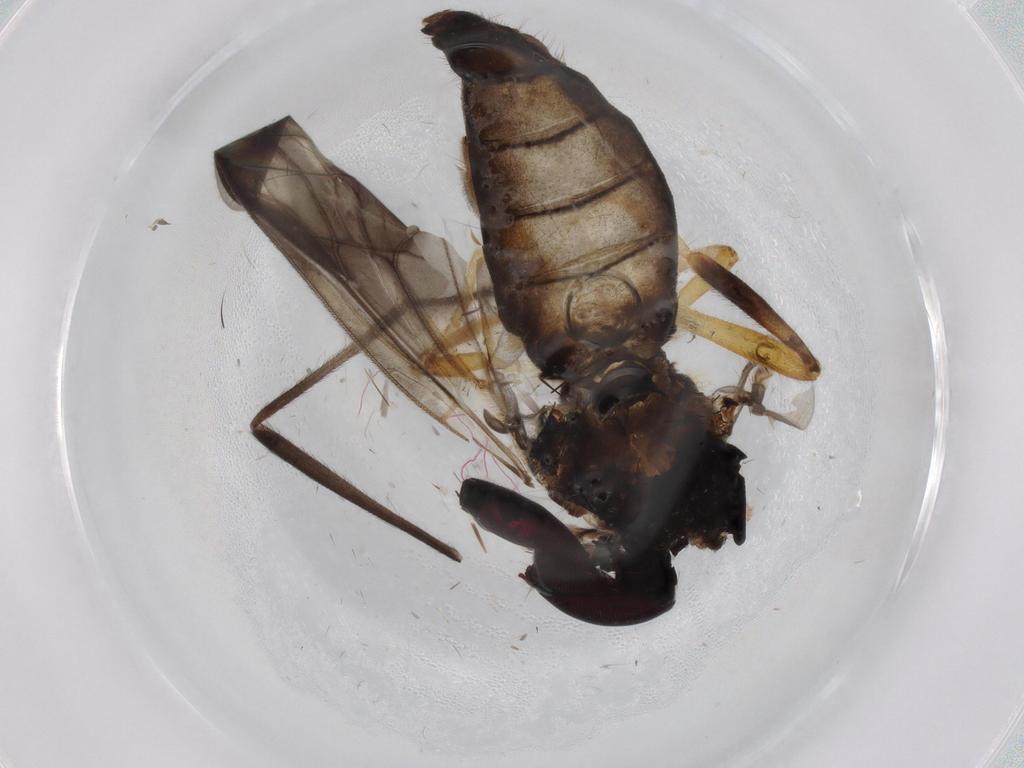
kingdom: Animalia
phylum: Arthropoda
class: Insecta
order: Diptera
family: Stratiomyidae
